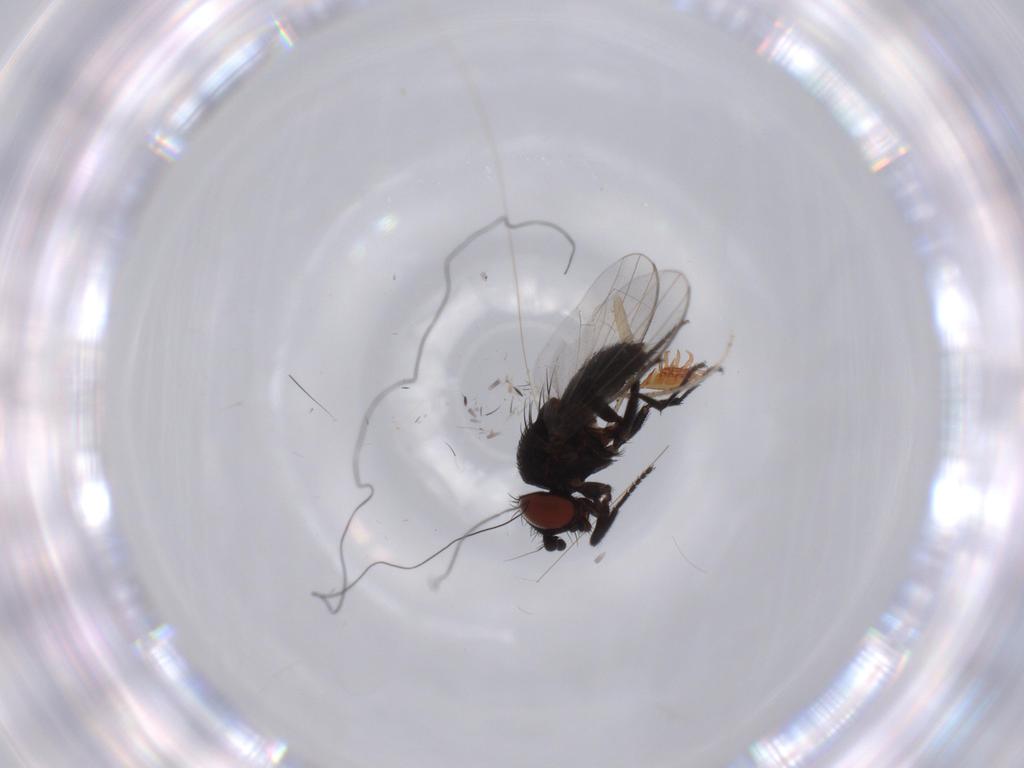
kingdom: Animalia
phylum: Arthropoda
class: Insecta
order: Diptera
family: Sciaridae
